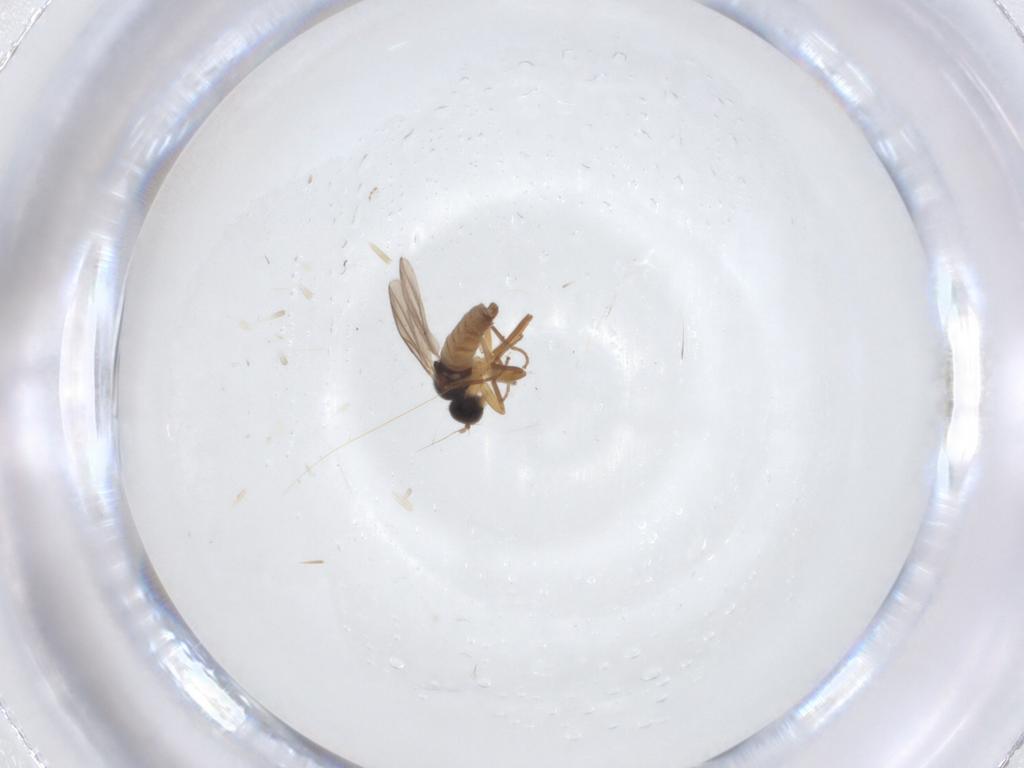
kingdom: Animalia
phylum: Arthropoda
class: Insecta
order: Diptera
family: Hybotidae
